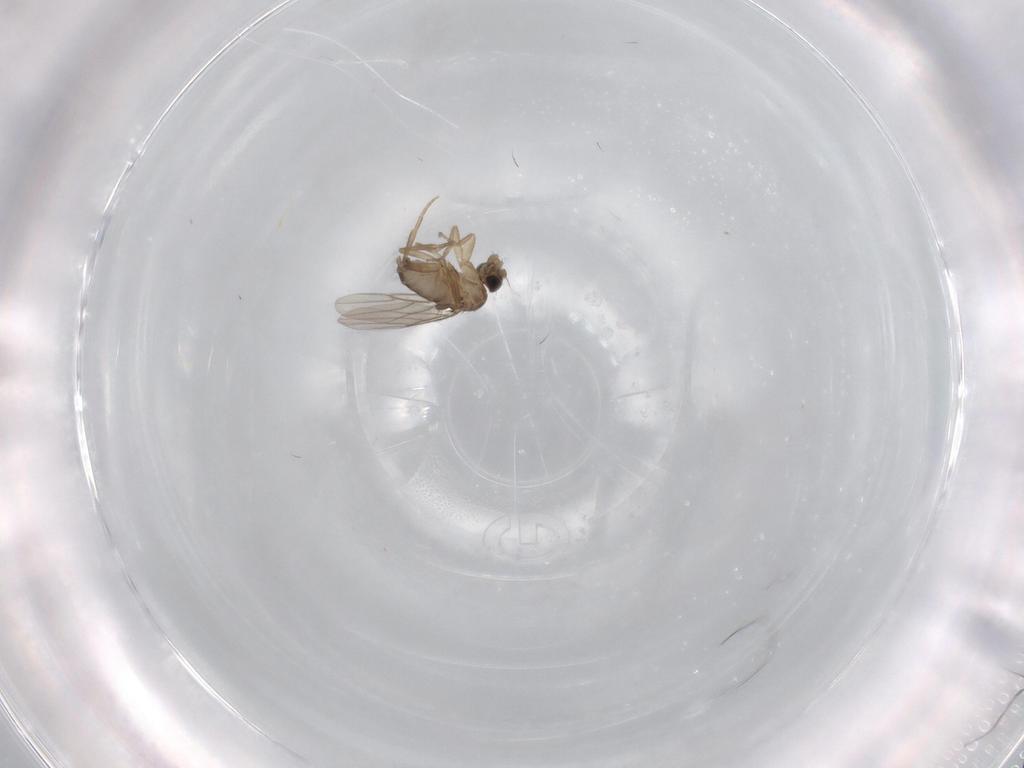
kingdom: Animalia
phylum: Arthropoda
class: Insecta
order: Diptera
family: Phoridae
